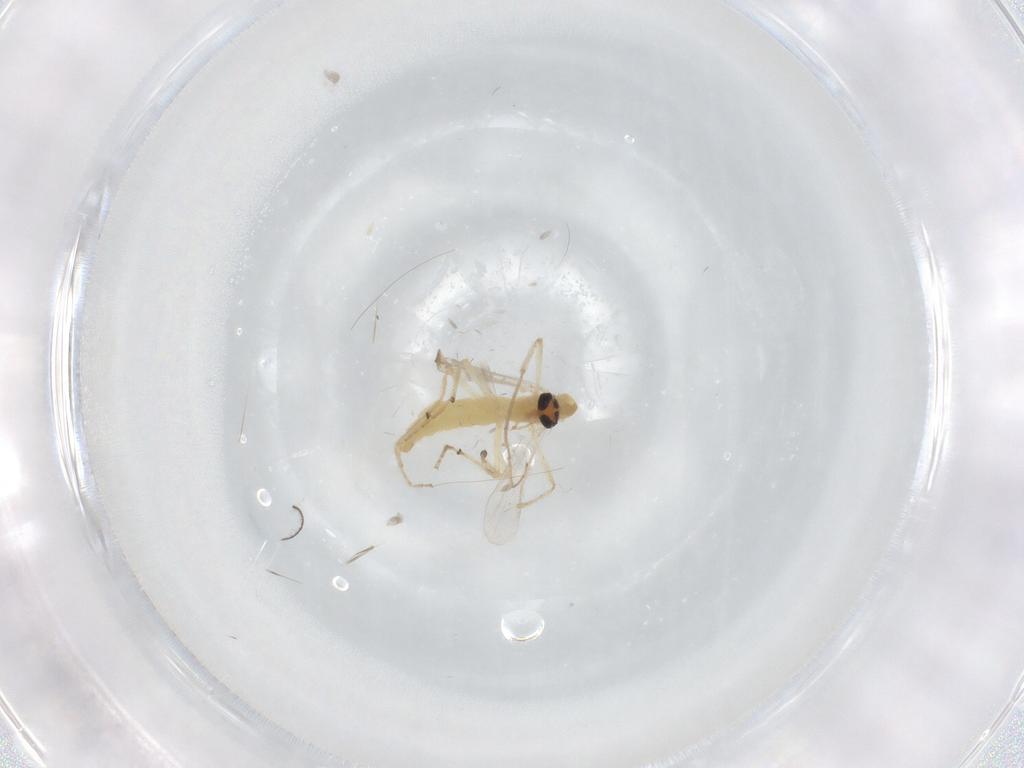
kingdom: Animalia
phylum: Arthropoda
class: Insecta
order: Diptera
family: Chironomidae
